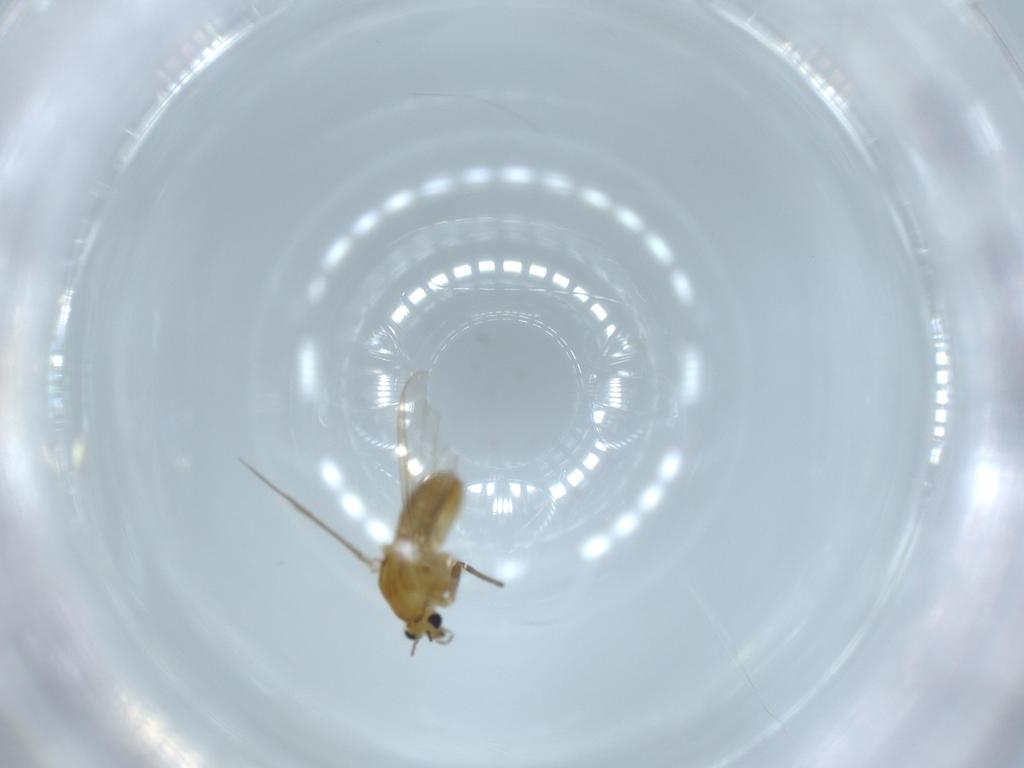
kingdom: Animalia
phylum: Arthropoda
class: Insecta
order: Diptera
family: Chironomidae
